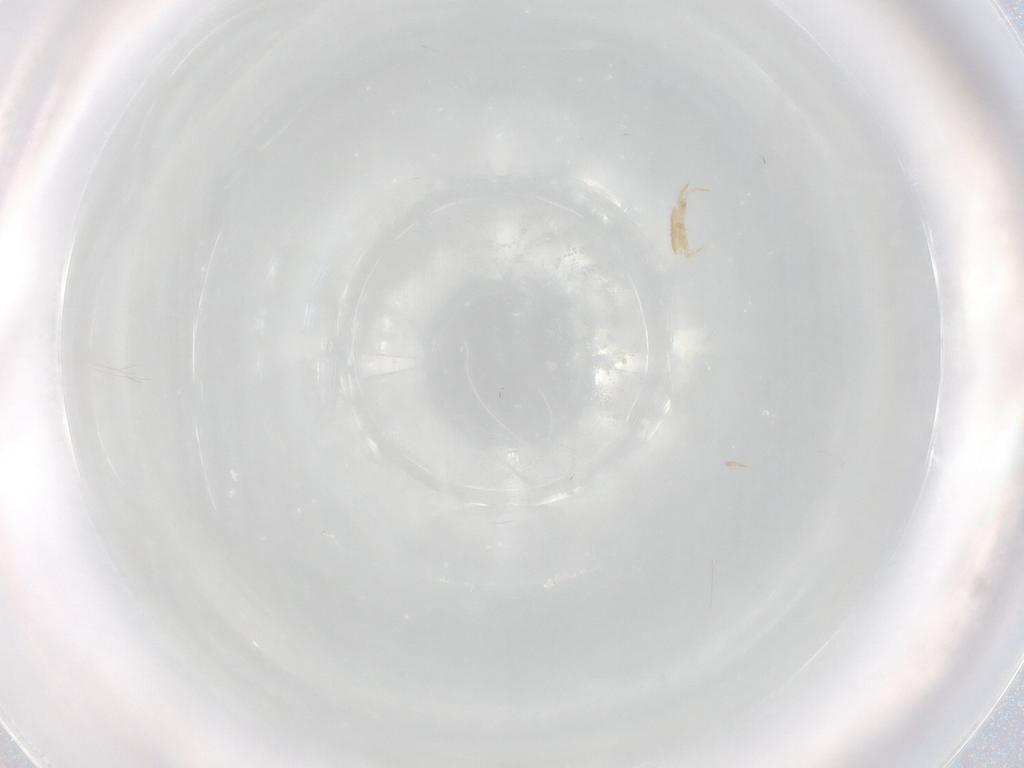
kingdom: Animalia
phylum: Arthropoda
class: Arachnida
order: Mesostigmata
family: Macrochelidae
